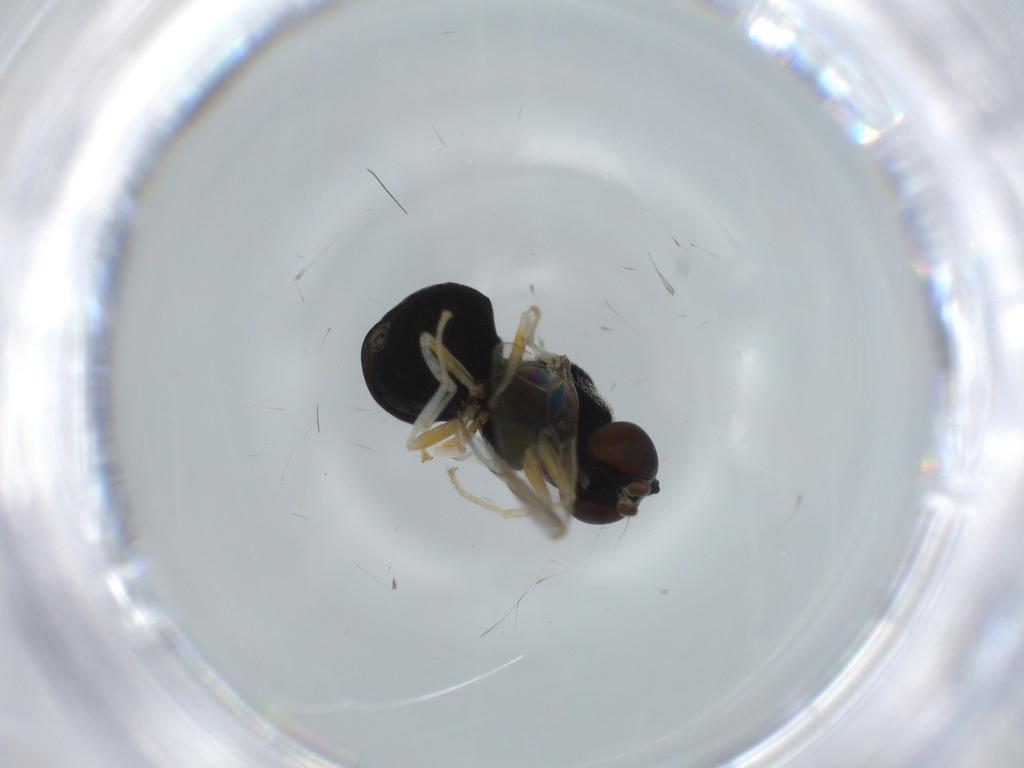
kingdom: Animalia
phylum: Arthropoda
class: Insecta
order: Diptera
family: Stratiomyidae
